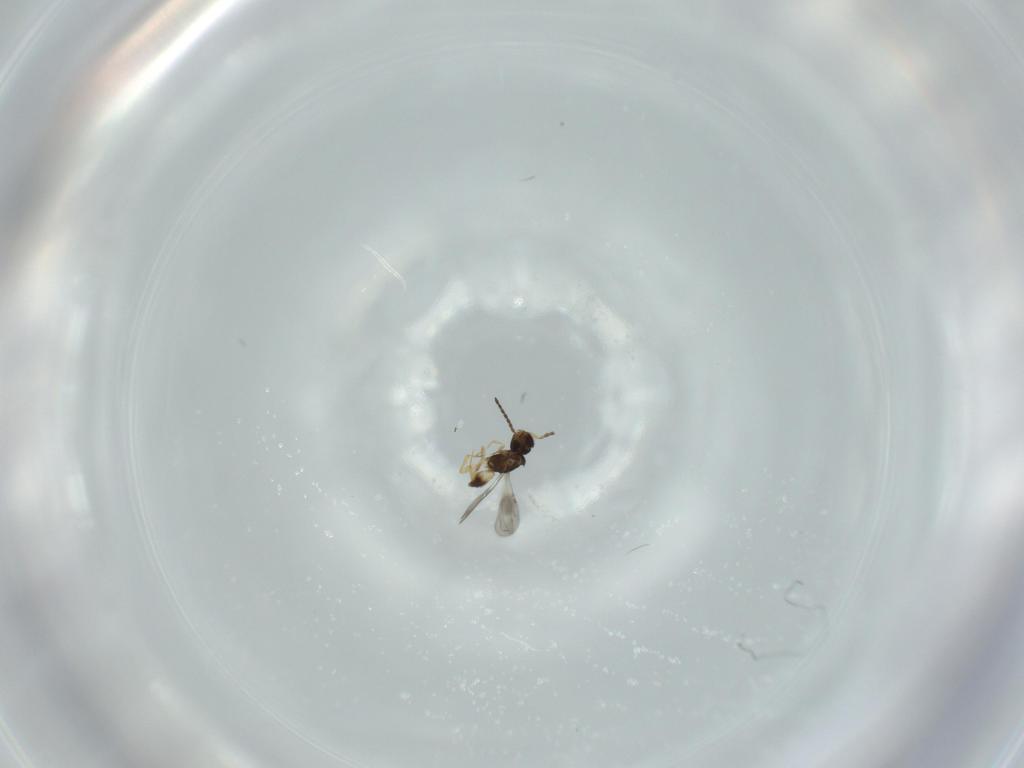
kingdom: Animalia
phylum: Arthropoda
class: Insecta
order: Hymenoptera
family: Ceraphronidae
